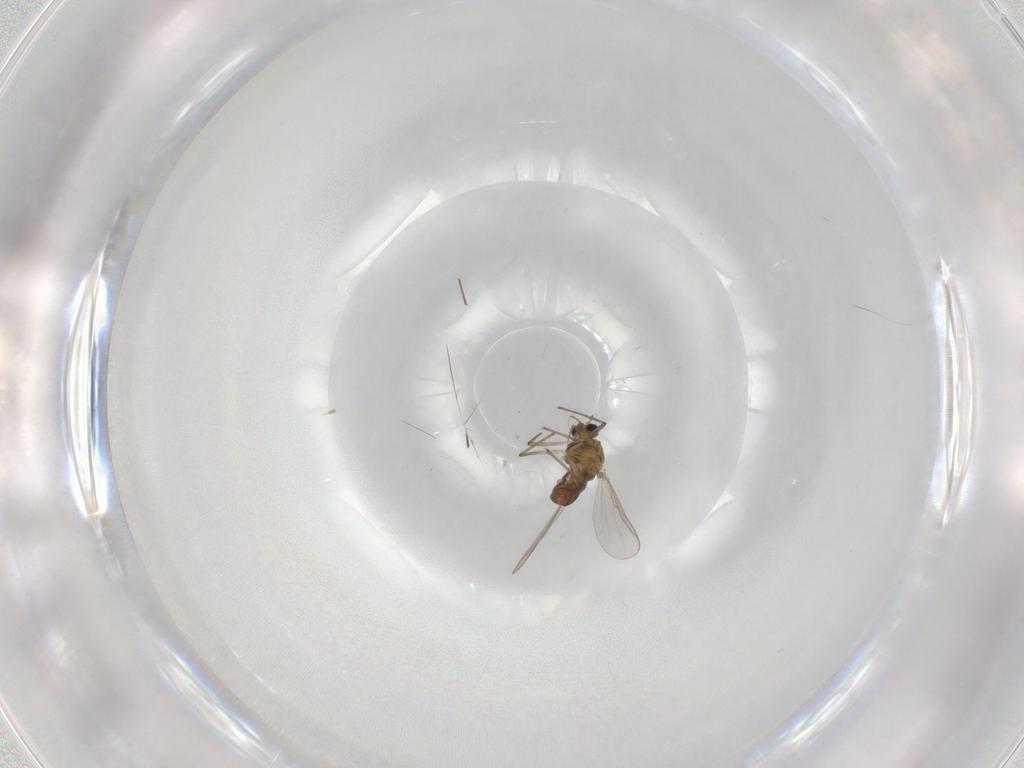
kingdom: Animalia
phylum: Arthropoda
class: Insecta
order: Diptera
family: Chironomidae
